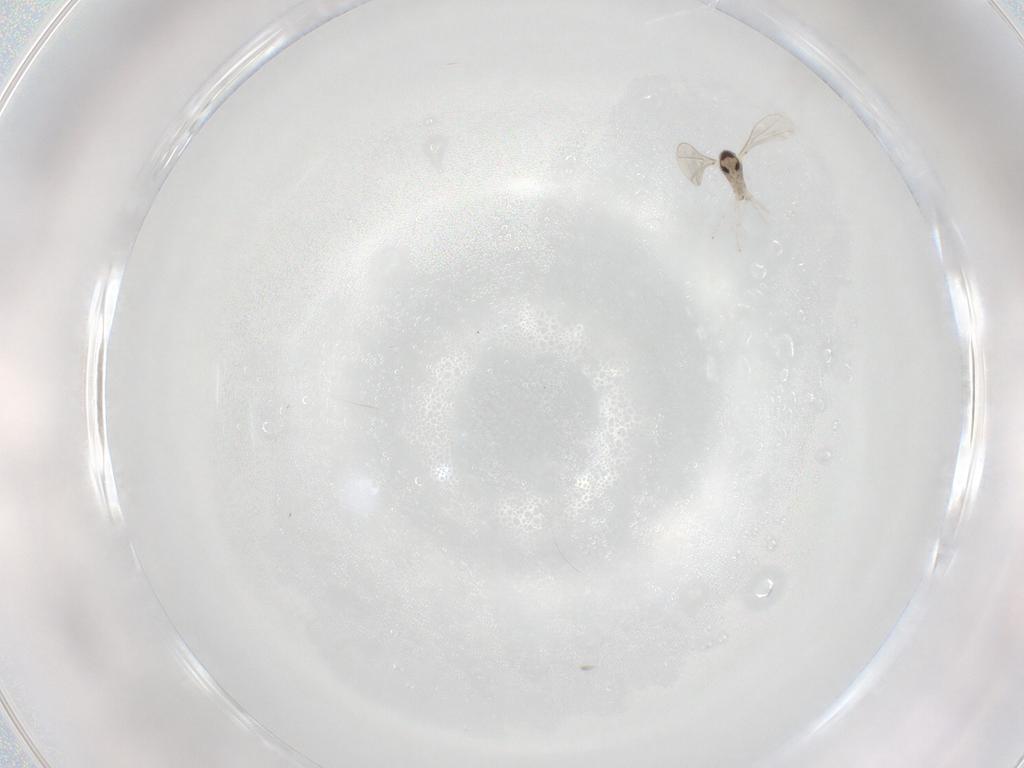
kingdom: Animalia
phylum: Arthropoda
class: Insecta
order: Diptera
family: Cecidomyiidae
